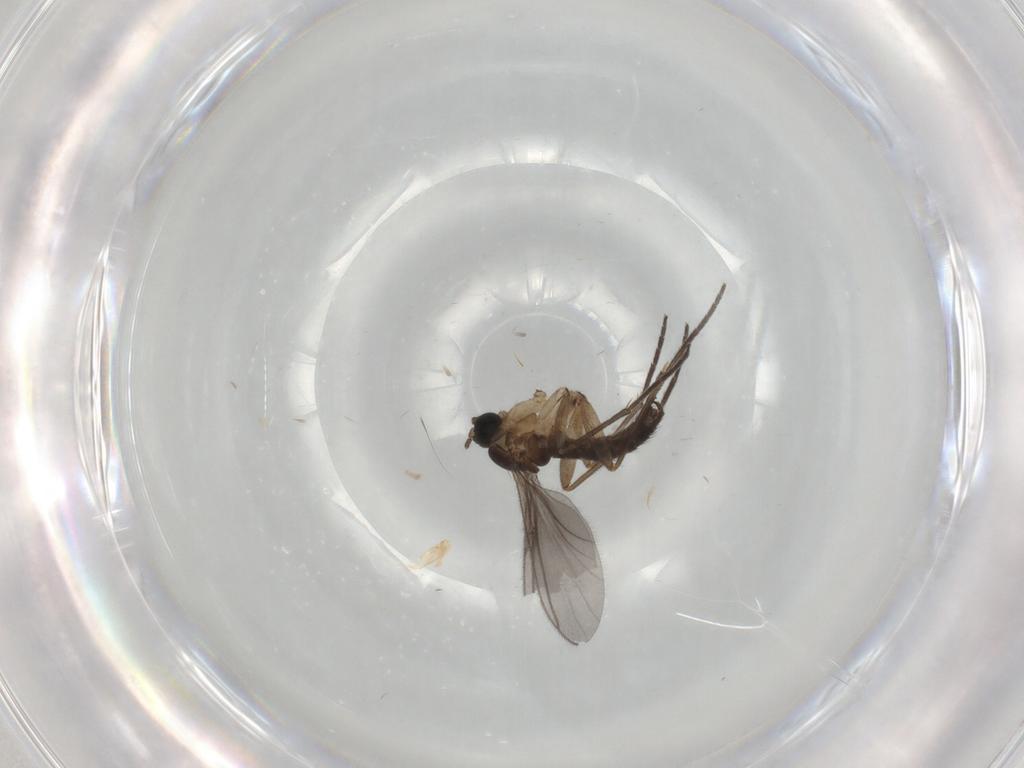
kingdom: Animalia
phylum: Arthropoda
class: Insecta
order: Diptera
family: Sciaridae
